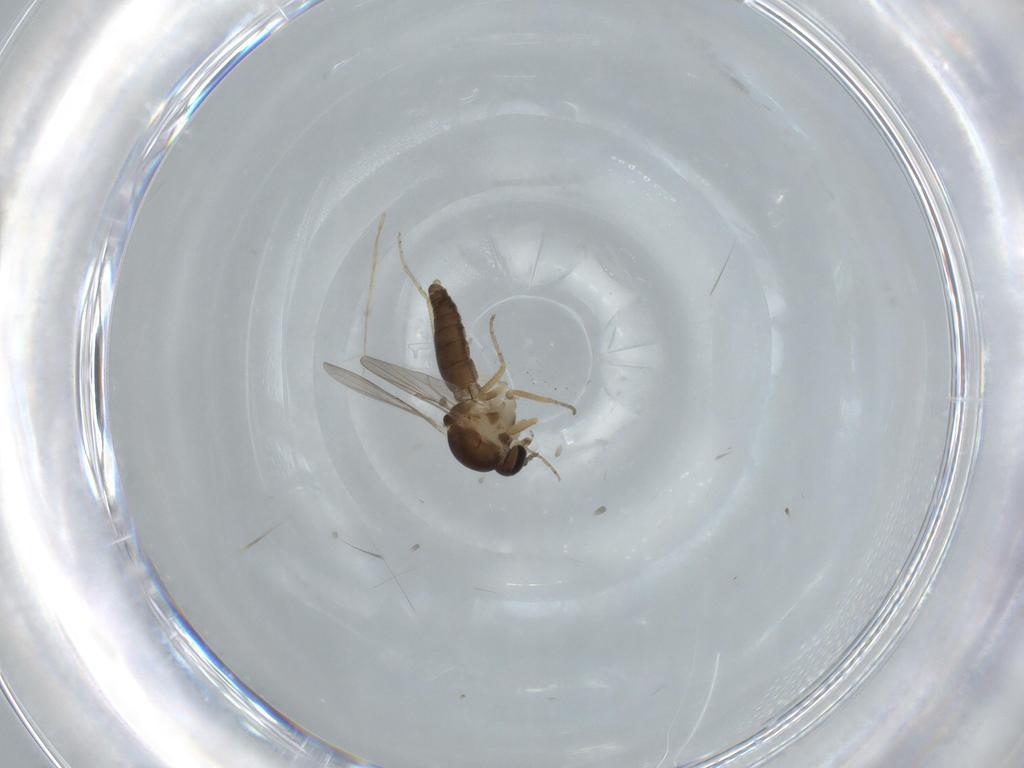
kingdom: Animalia
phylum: Arthropoda
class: Insecta
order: Diptera
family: Ceratopogonidae
